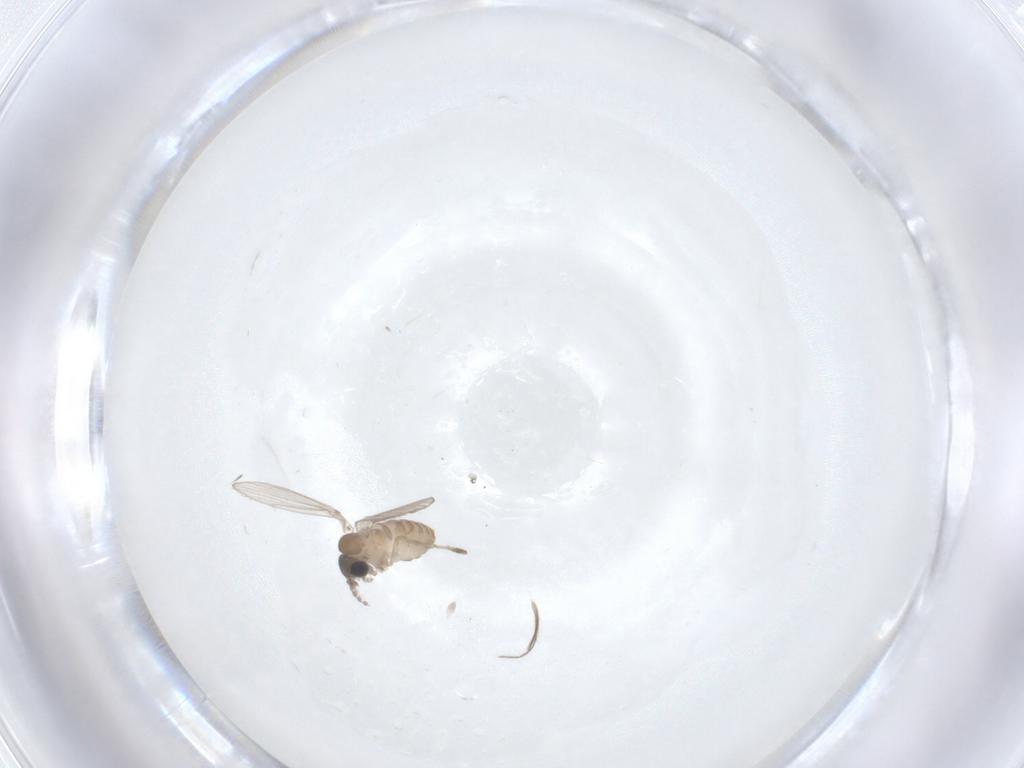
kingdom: Animalia
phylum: Arthropoda
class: Insecta
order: Diptera
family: Ceratopogonidae
